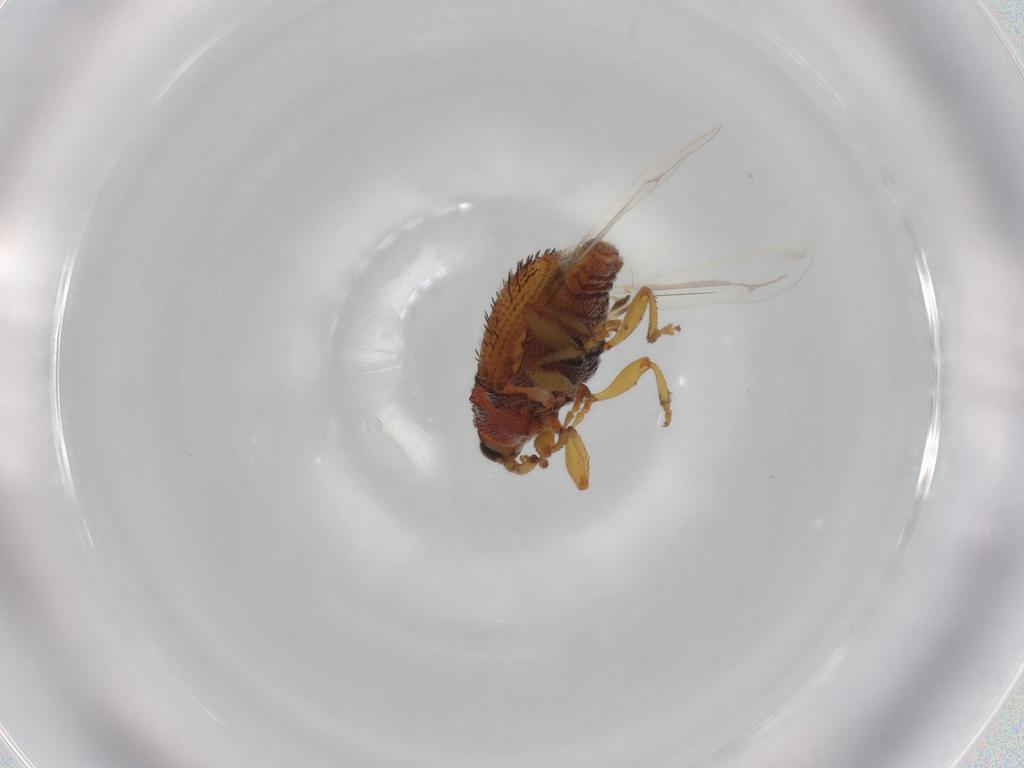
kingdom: Animalia
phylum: Arthropoda
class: Insecta
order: Coleoptera
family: Curculionidae
